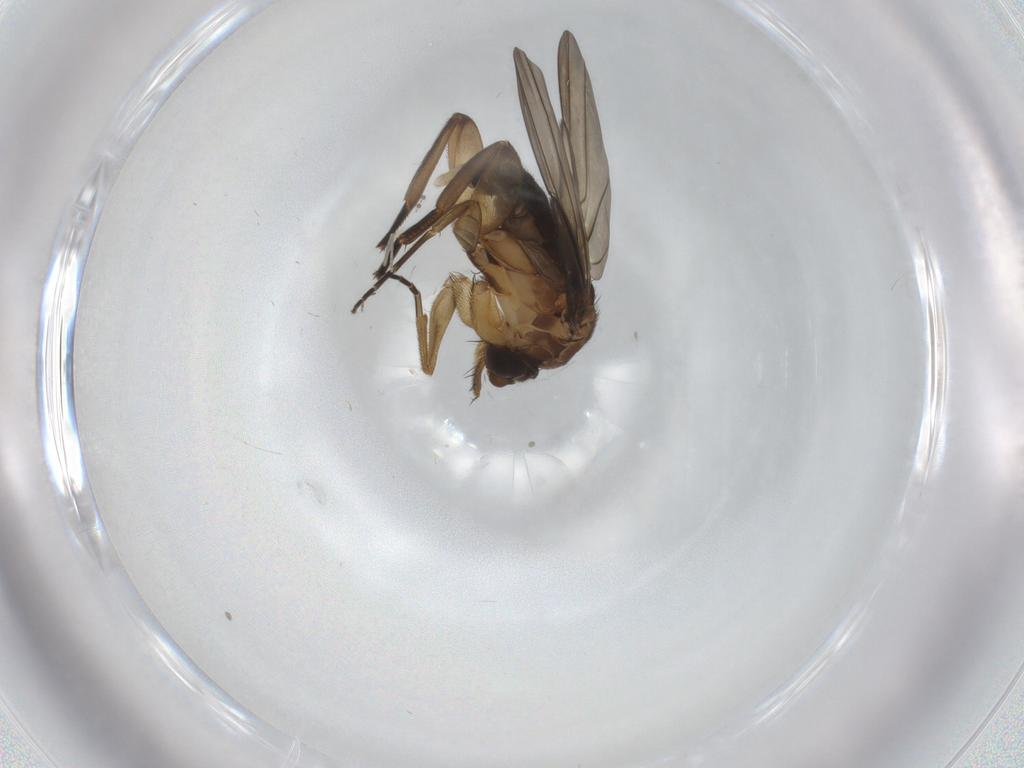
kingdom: Animalia
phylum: Arthropoda
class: Insecta
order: Diptera
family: Cecidomyiidae
